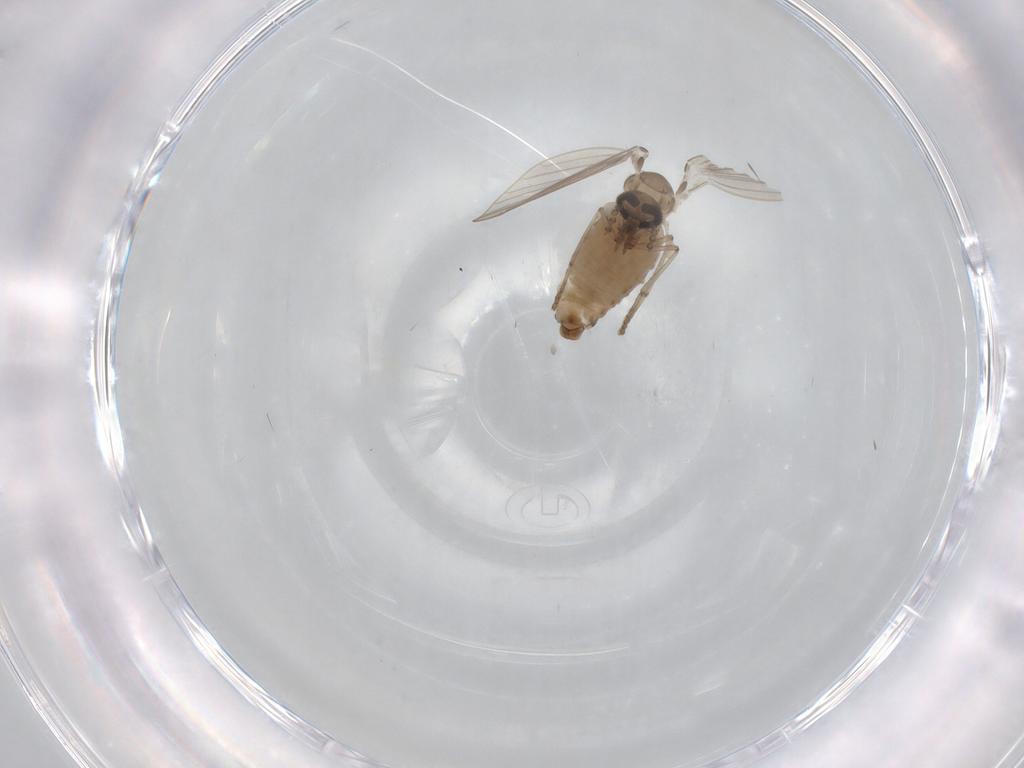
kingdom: Animalia
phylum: Arthropoda
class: Insecta
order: Diptera
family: Psychodidae
